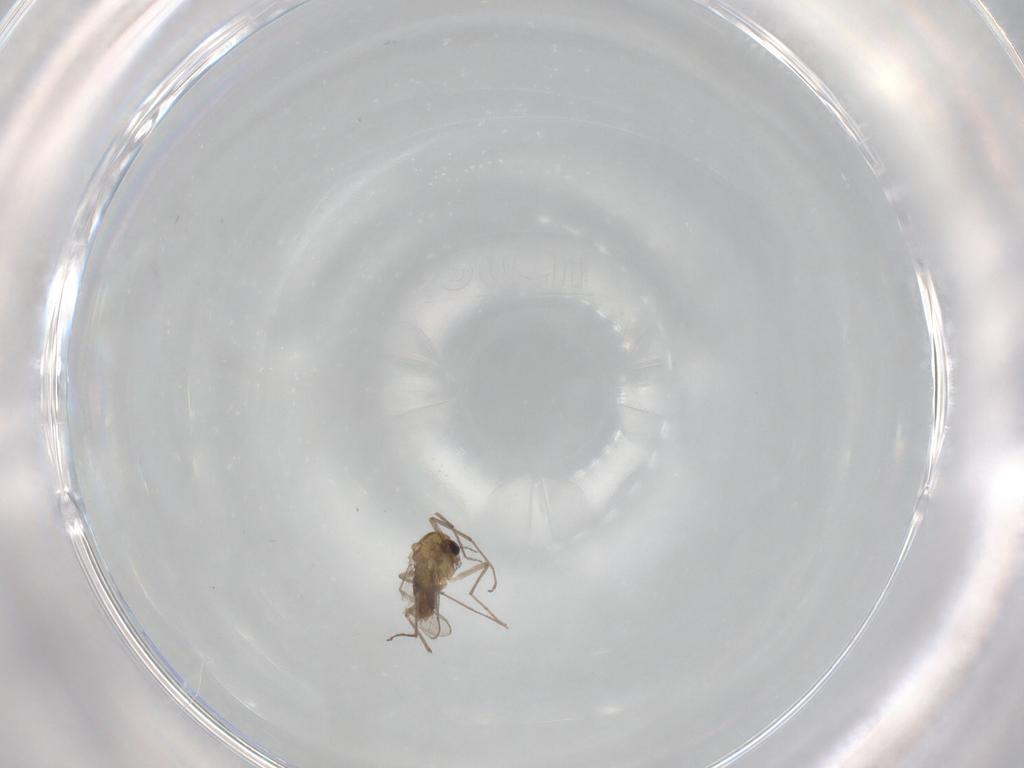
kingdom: Animalia
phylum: Arthropoda
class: Insecta
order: Diptera
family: Chironomidae
